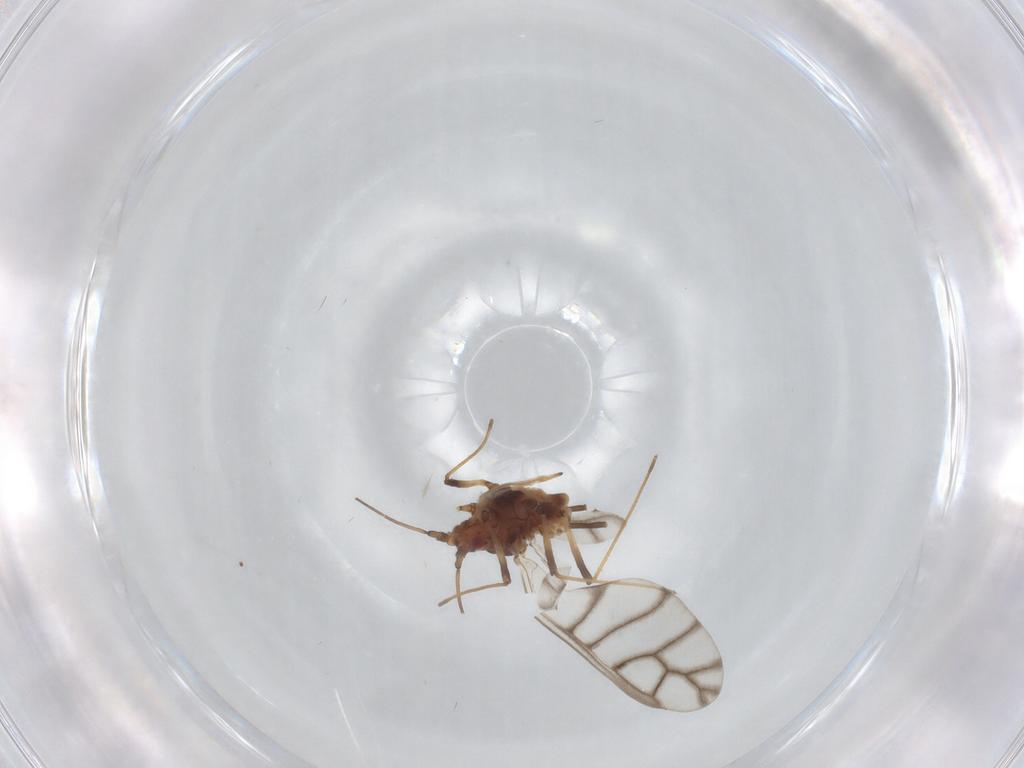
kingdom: Animalia
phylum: Arthropoda
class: Insecta
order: Hemiptera
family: Aphididae
